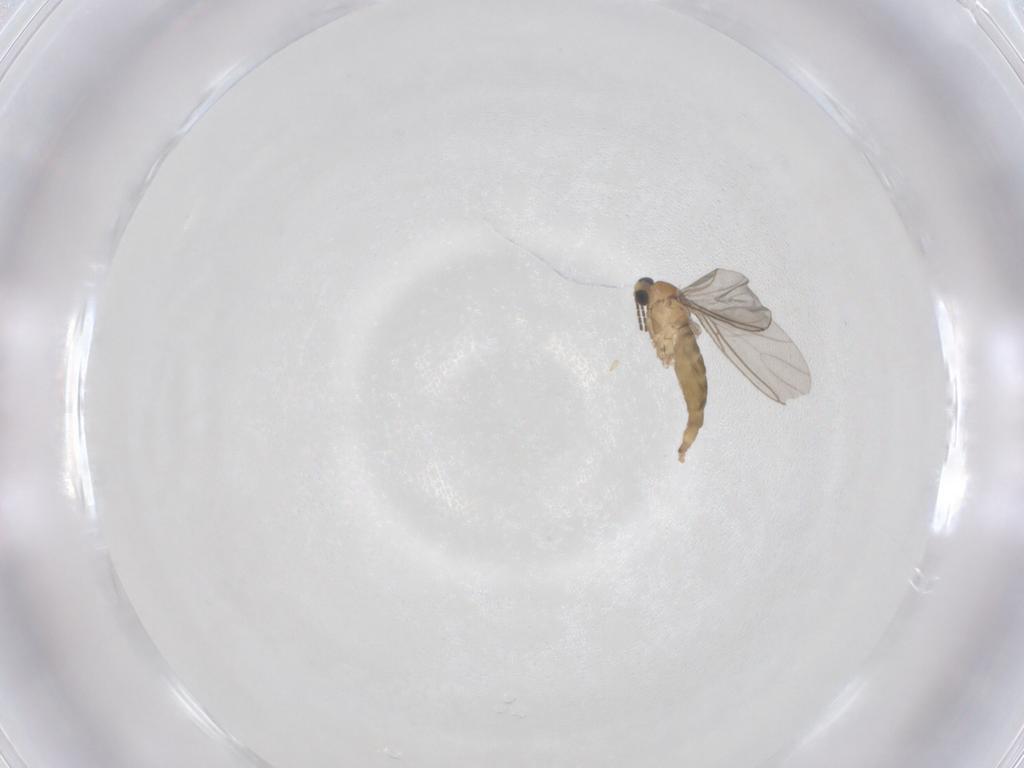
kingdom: Animalia
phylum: Arthropoda
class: Insecta
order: Diptera
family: Sciaridae
